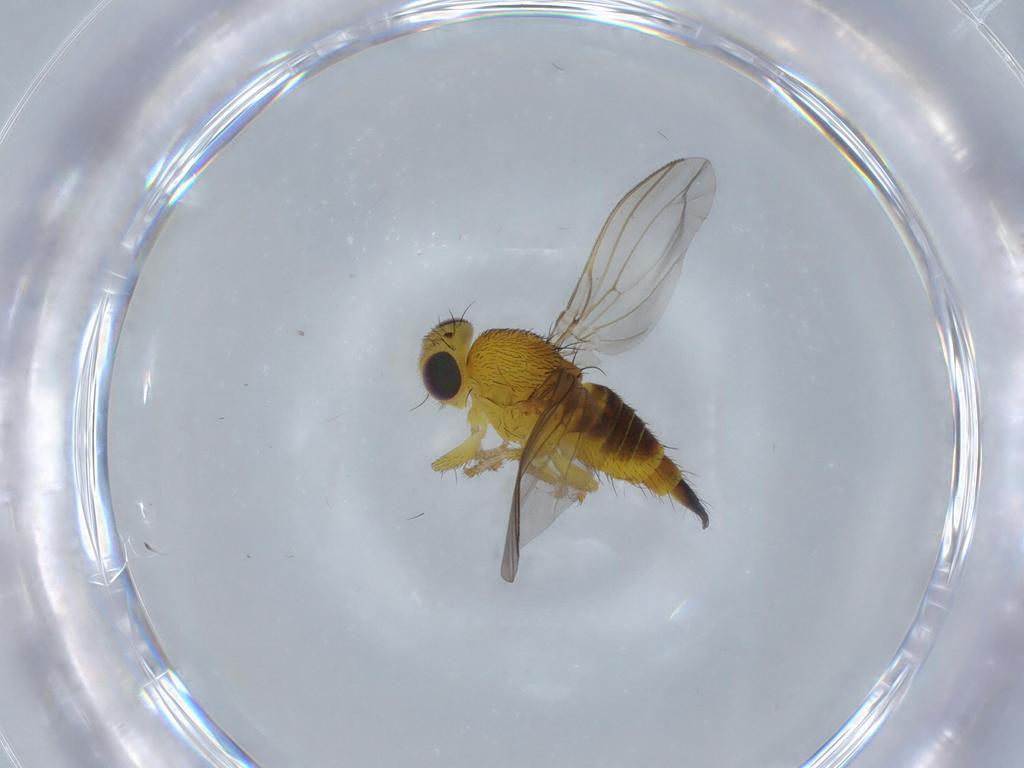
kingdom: Animalia
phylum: Arthropoda
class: Insecta
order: Diptera
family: Fergusoninidae
